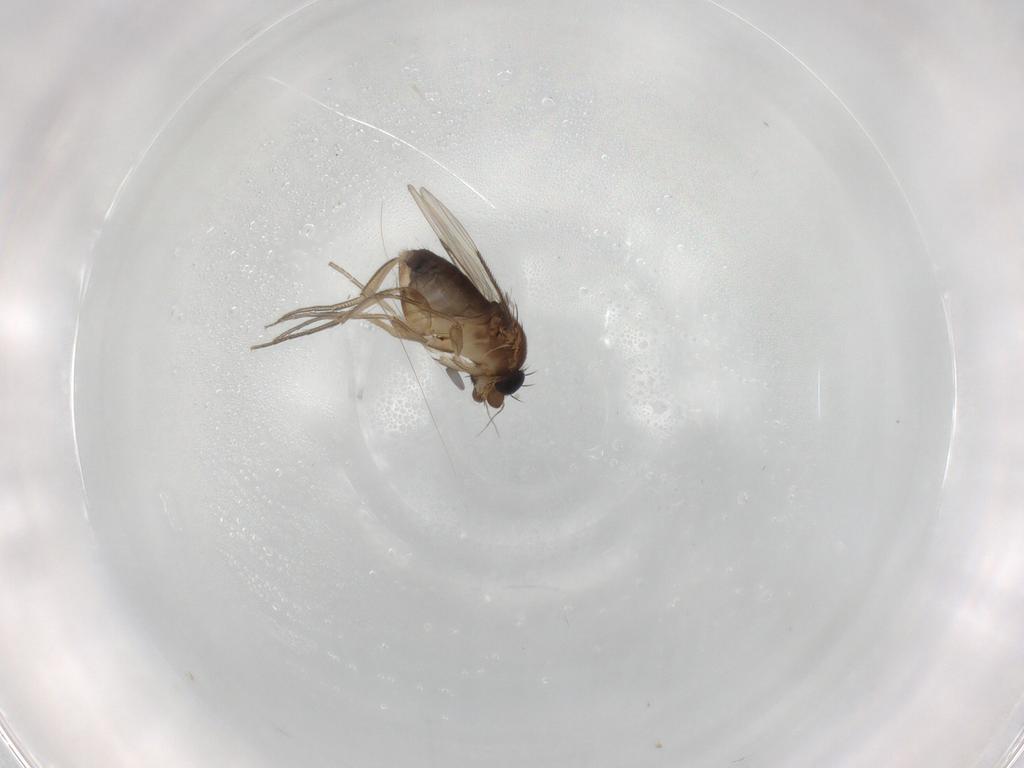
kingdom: Animalia
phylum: Arthropoda
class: Insecta
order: Diptera
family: Phoridae
